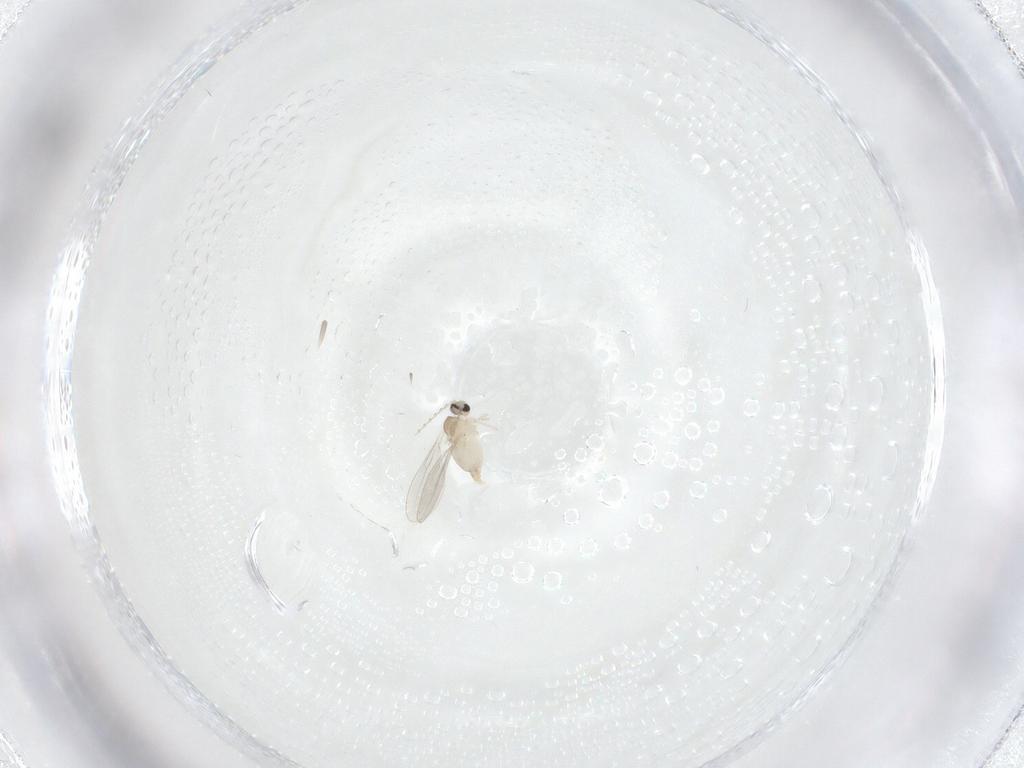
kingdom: Animalia
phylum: Arthropoda
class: Insecta
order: Diptera
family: Cecidomyiidae
